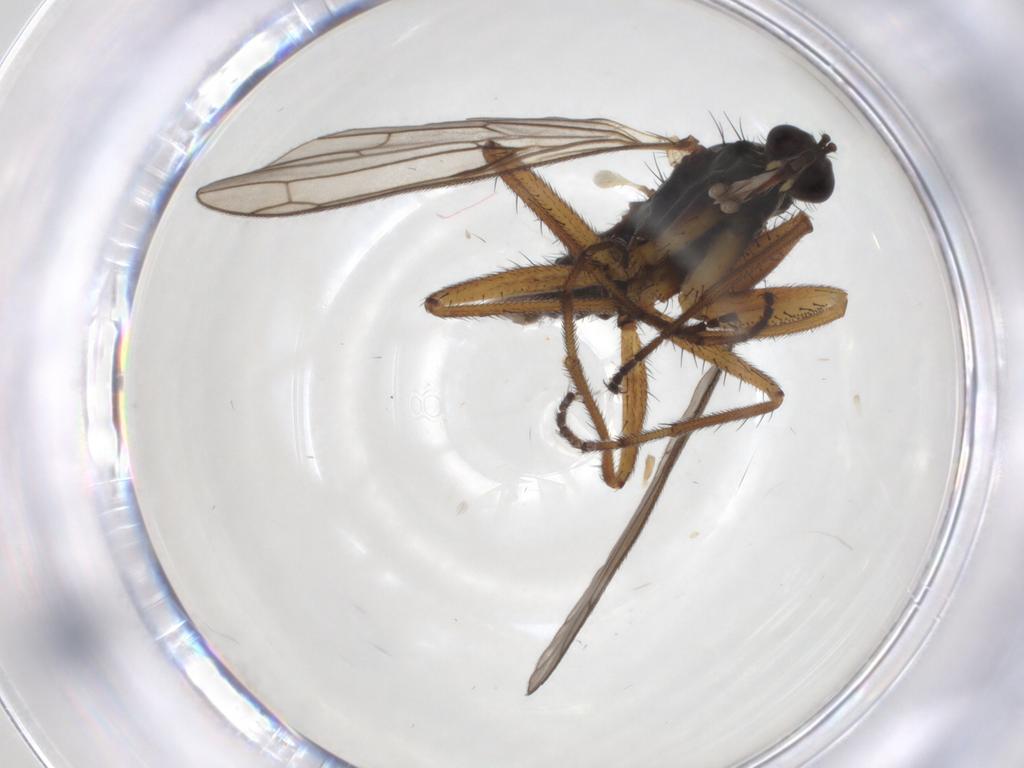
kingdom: Animalia
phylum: Arthropoda
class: Insecta
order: Diptera
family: Empididae
